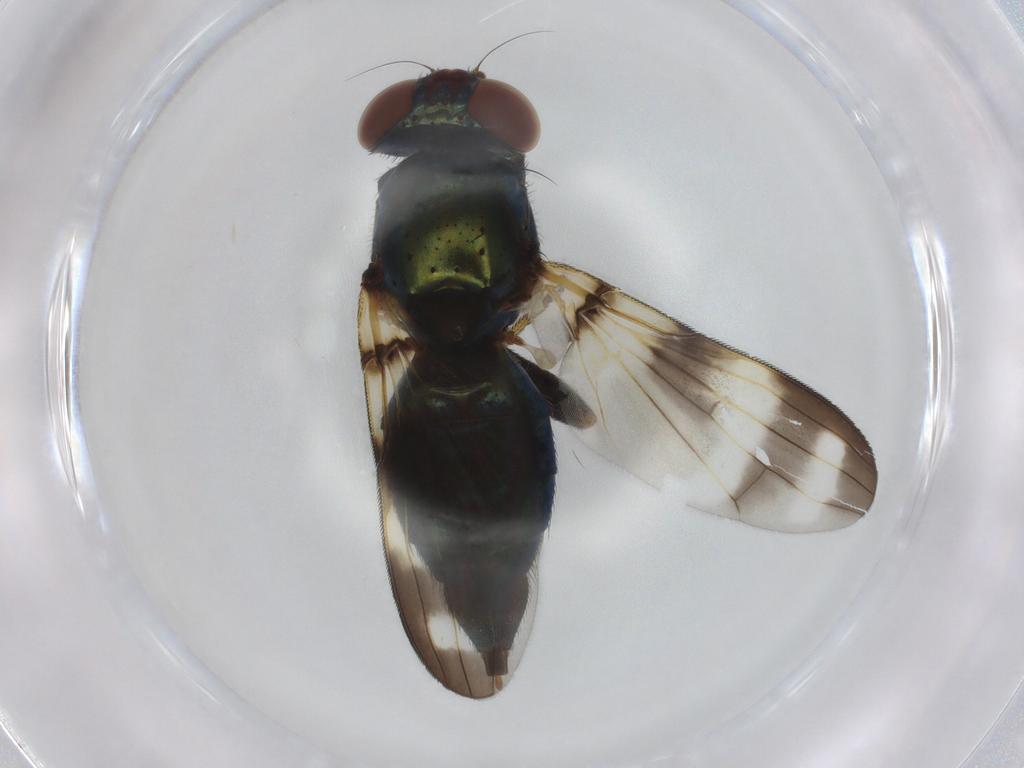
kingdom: Animalia
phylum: Arthropoda
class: Insecta
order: Diptera
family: Ulidiidae
